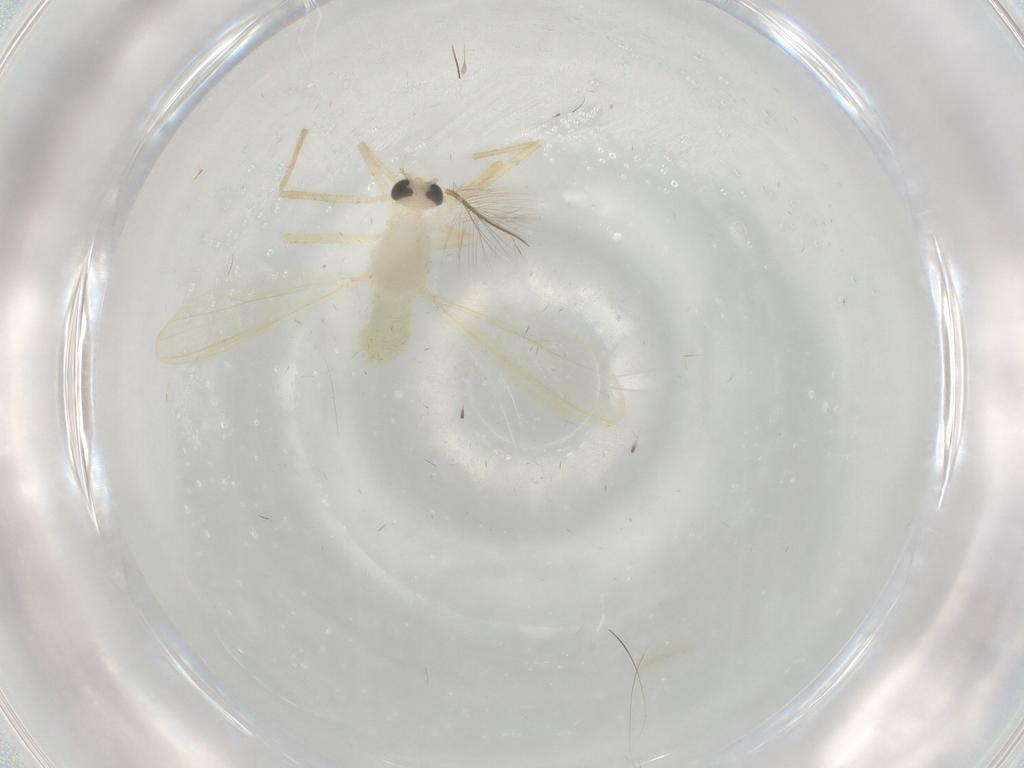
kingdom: Animalia
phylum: Arthropoda
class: Insecta
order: Diptera
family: Chironomidae
